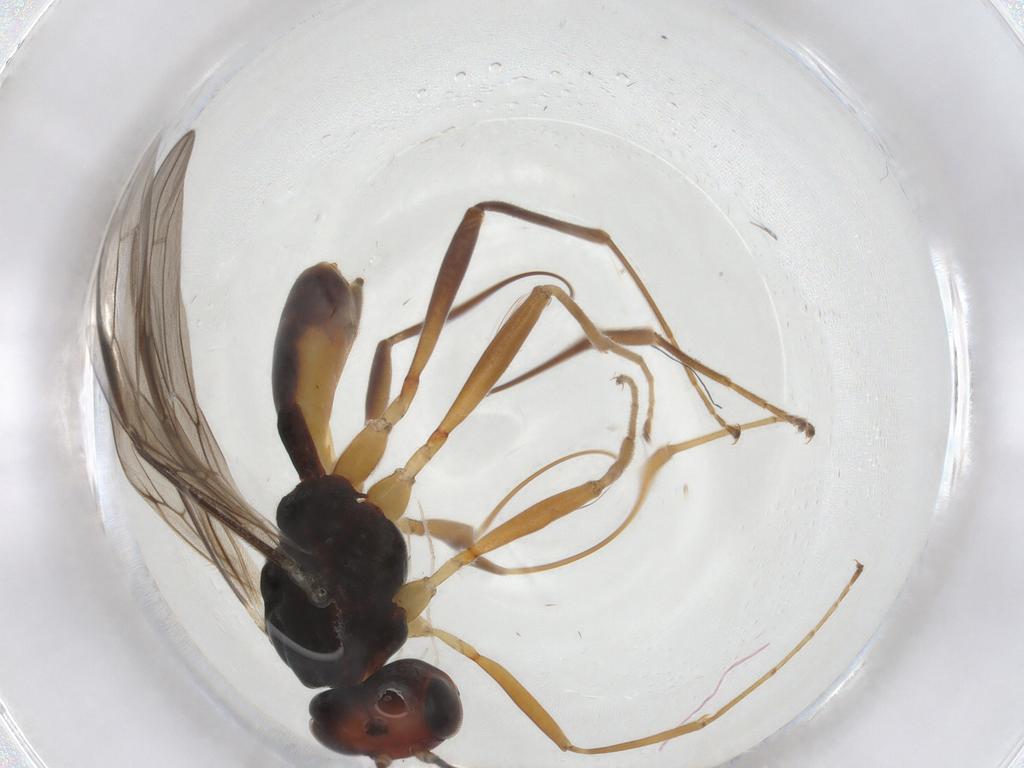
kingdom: Animalia
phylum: Arthropoda
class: Insecta
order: Hymenoptera
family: Braconidae
